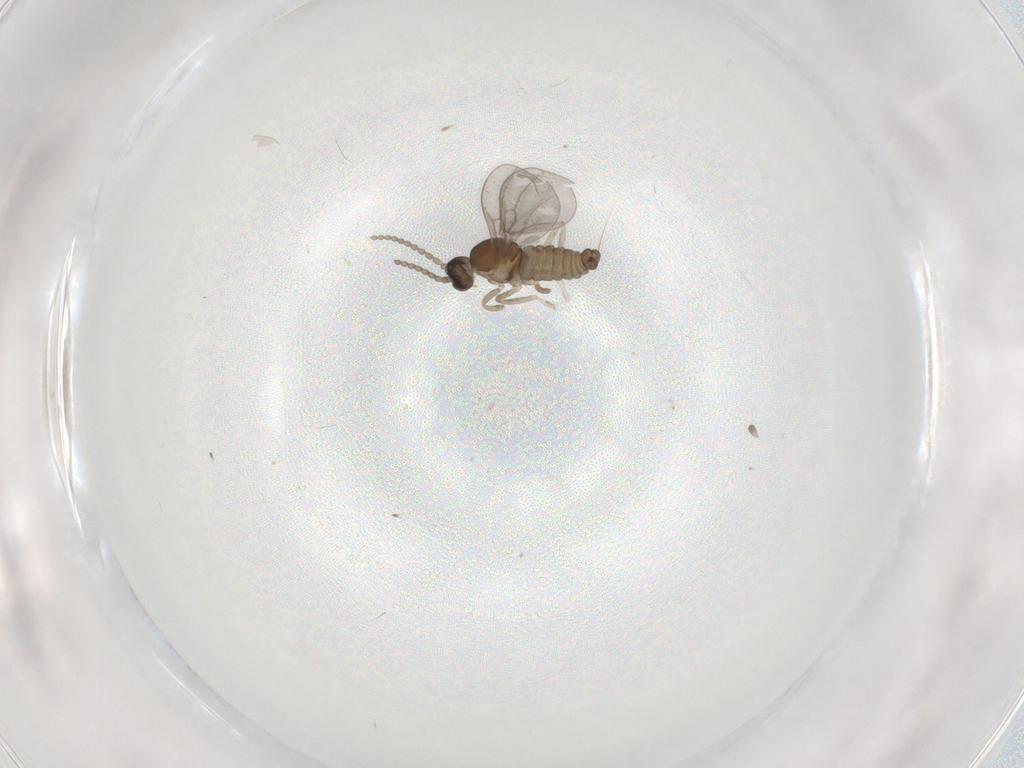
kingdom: Animalia
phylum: Arthropoda
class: Insecta
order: Diptera
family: Cecidomyiidae
